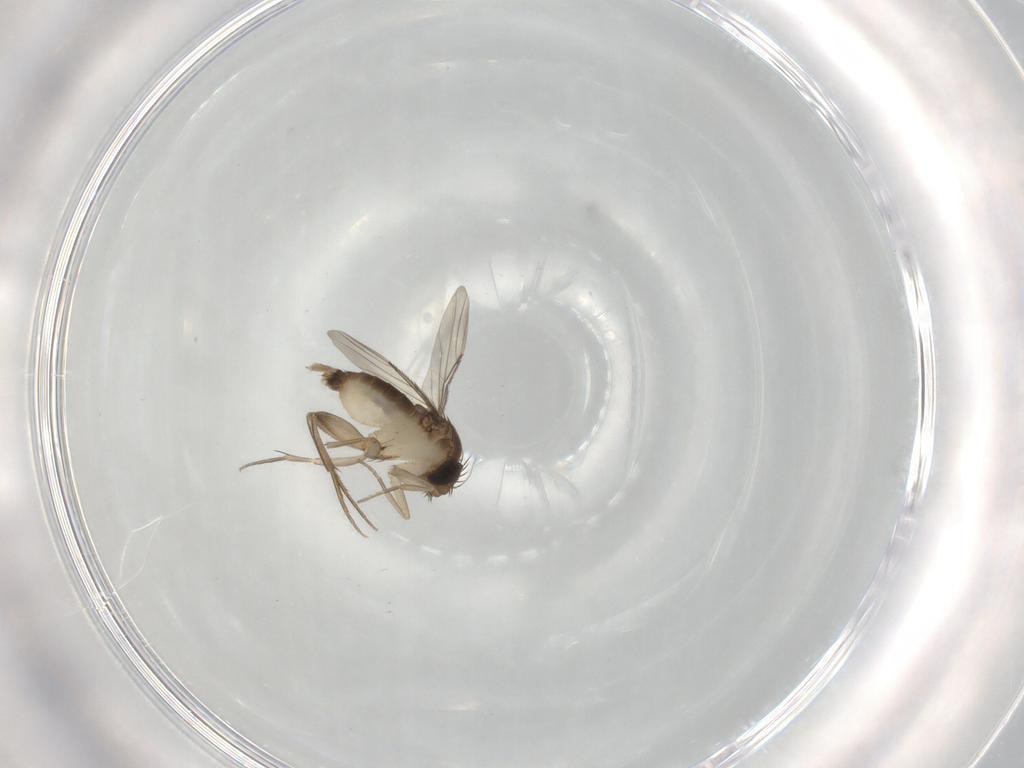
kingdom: Animalia
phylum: Arthropoda
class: Insecta
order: Diptera
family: Phoridae
